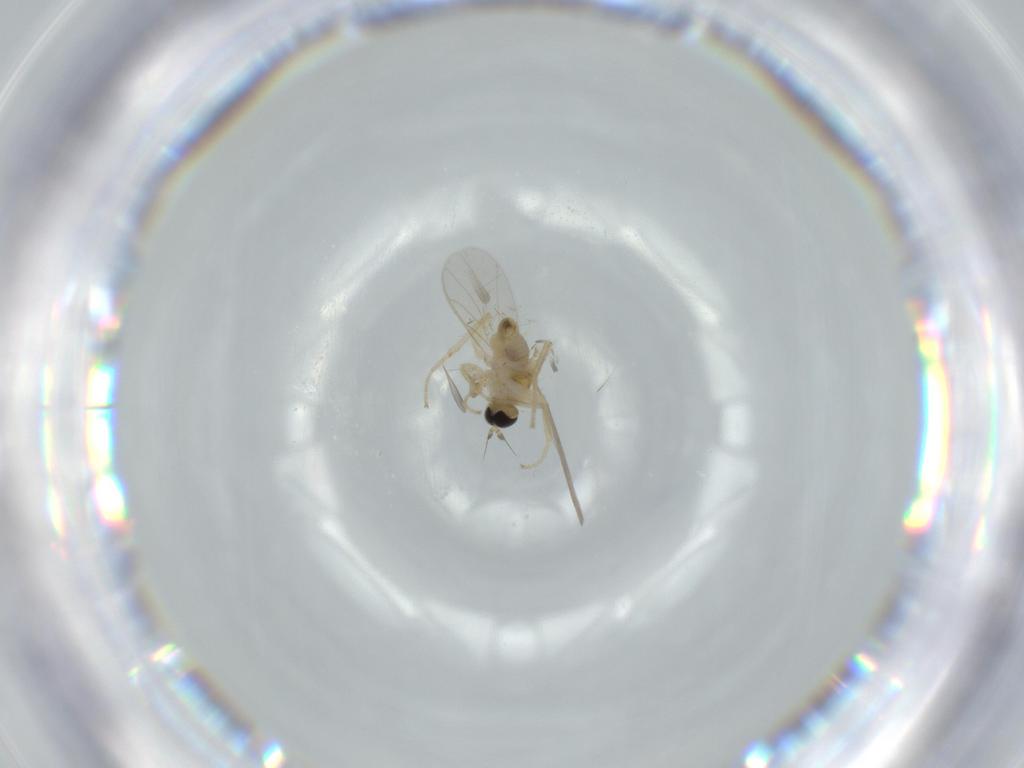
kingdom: Animalia
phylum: Arthropoda
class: Insecta
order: Diptera
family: Hybotidae
